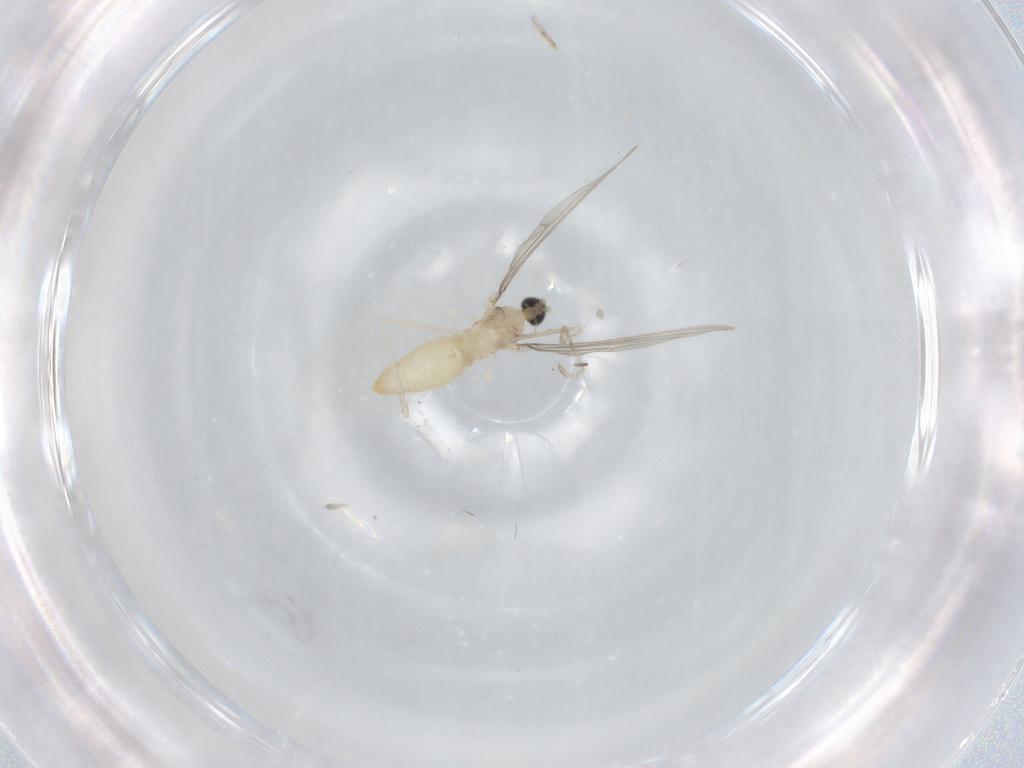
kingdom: Animalia
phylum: Arthropoda
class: Insecta
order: Diptera
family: Cecidomyiidae
